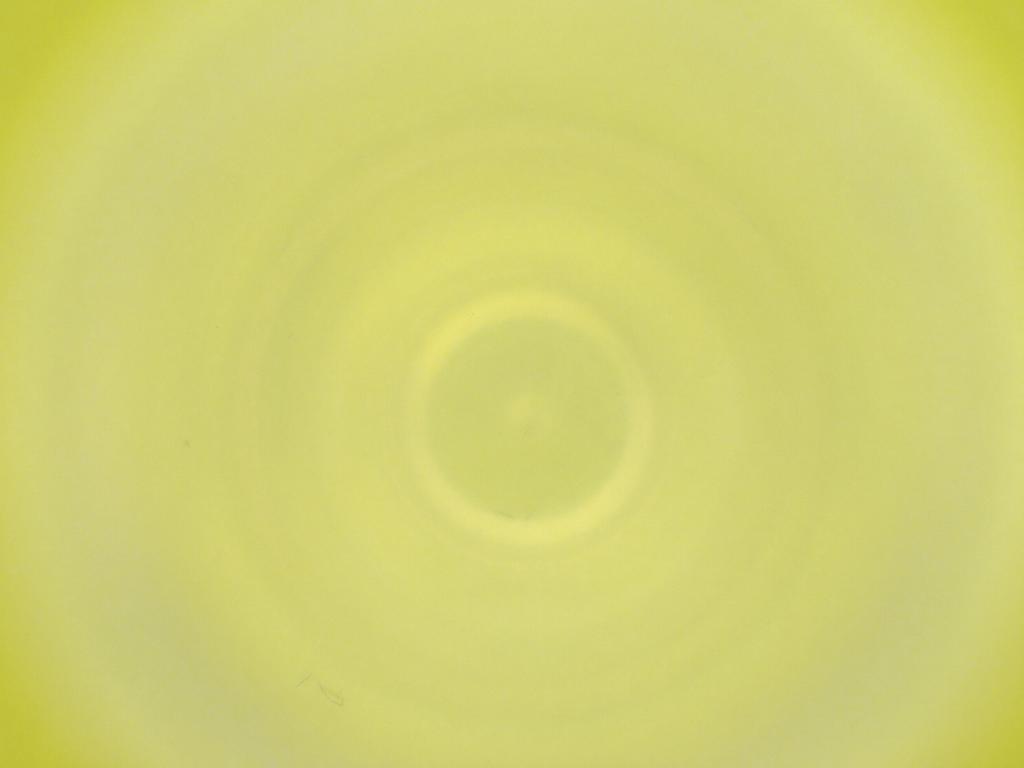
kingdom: Animalia
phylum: Arthropoda
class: Insecta
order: Diptera
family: Cecidomyiidae
